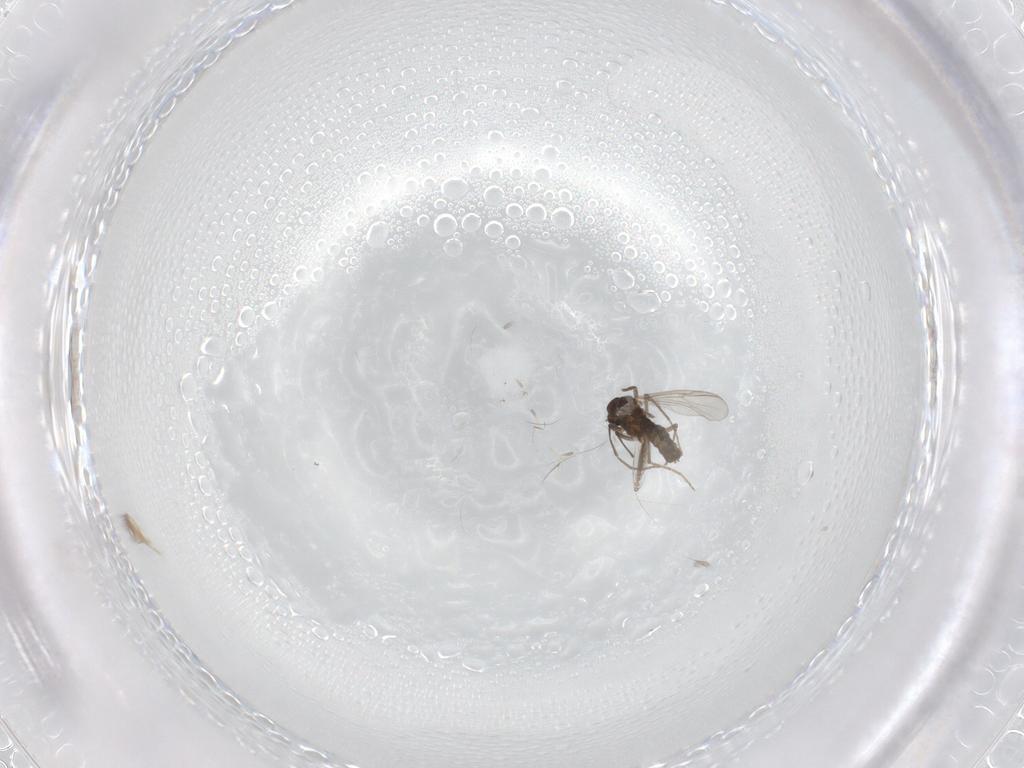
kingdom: Animalia
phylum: Arthropoda
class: Insecta
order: Diptera
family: Chironomidae
